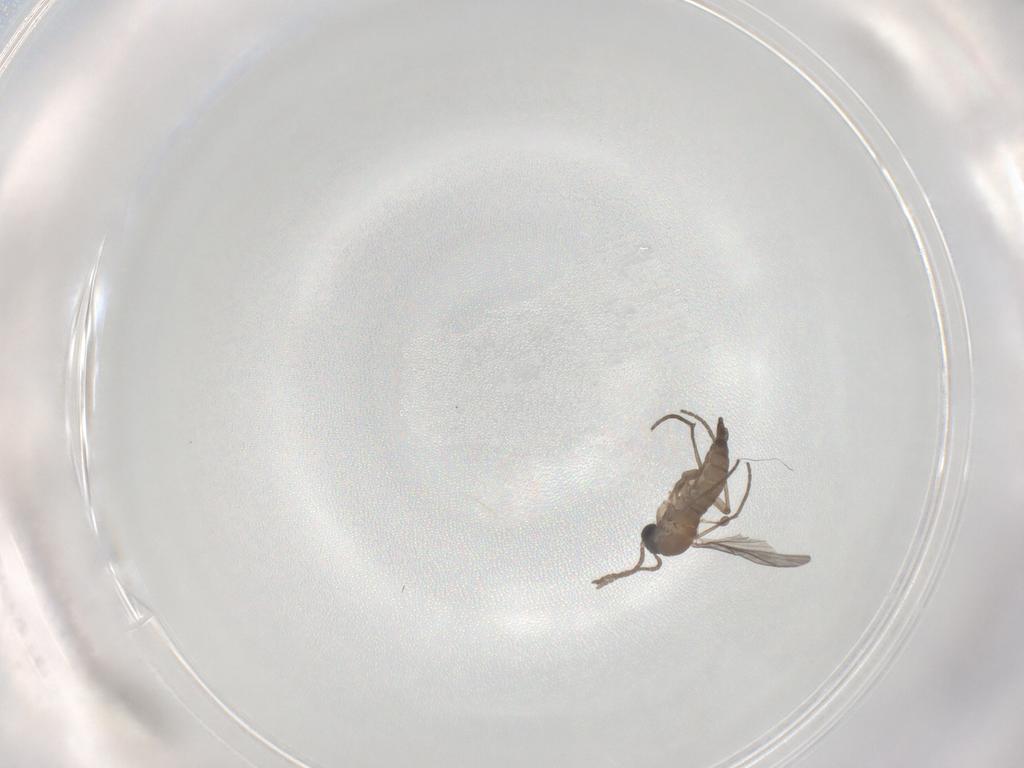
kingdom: Animalia
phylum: Arthropoda
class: Insecta
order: Diptera
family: Sciaridae
